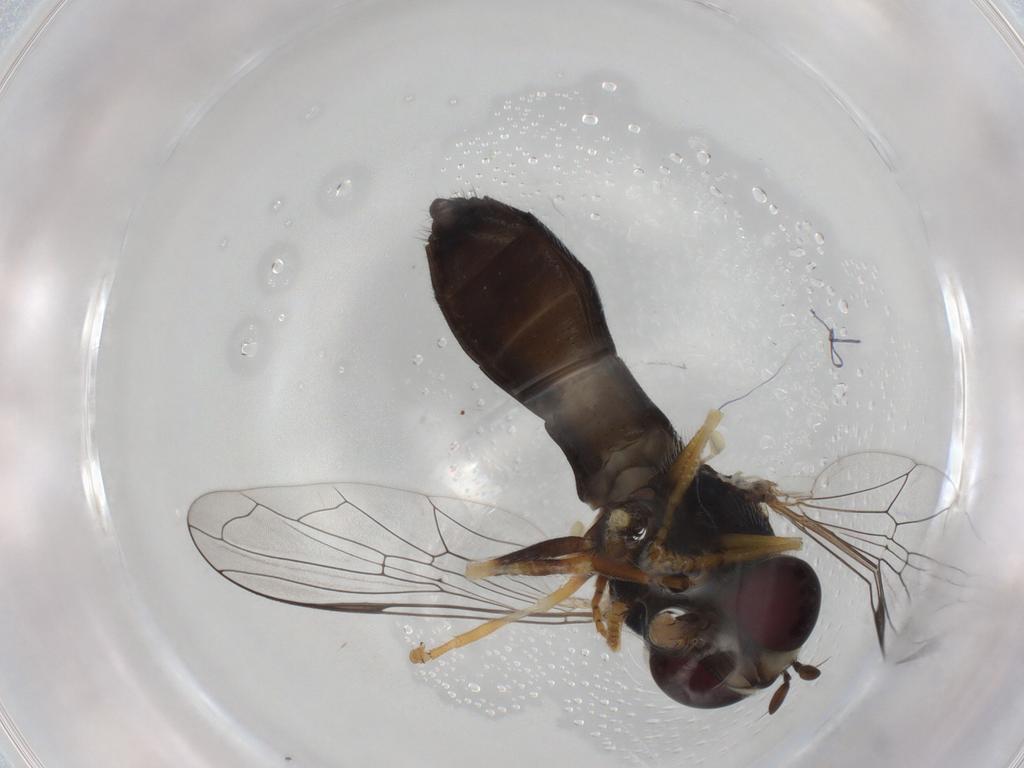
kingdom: Animalia
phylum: Arthropoda
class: Insecta
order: Diptera
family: Syrphidae
